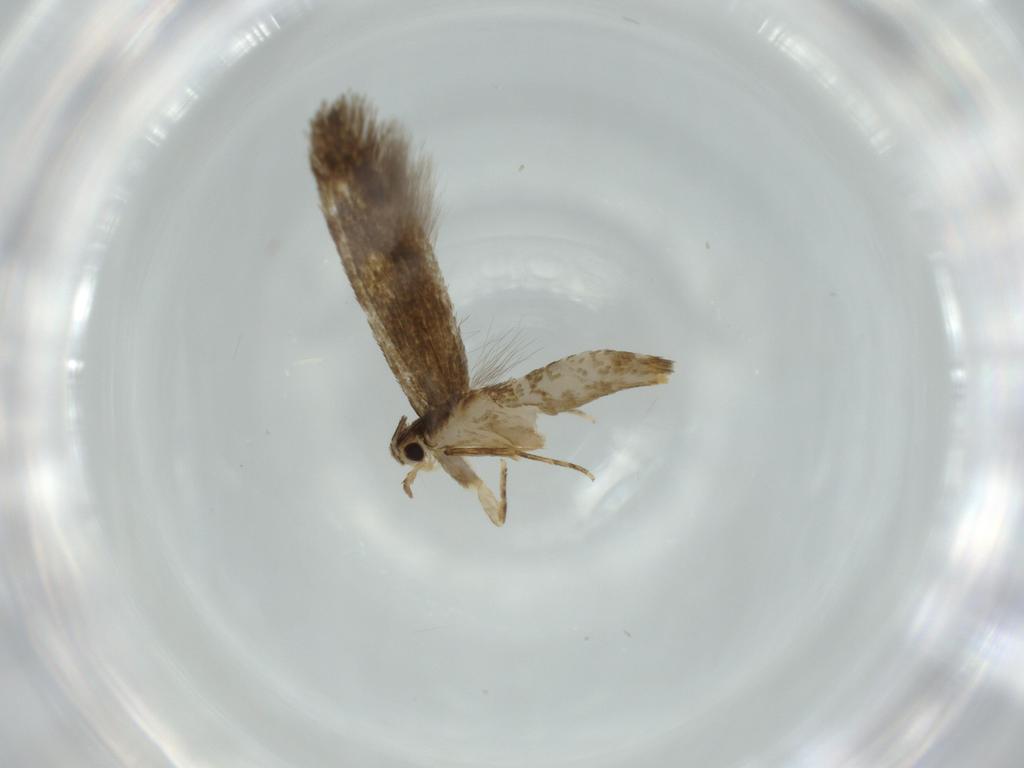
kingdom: Animalia
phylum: Arthropoda
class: Insecta
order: Lepidoptera
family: Tineidae
